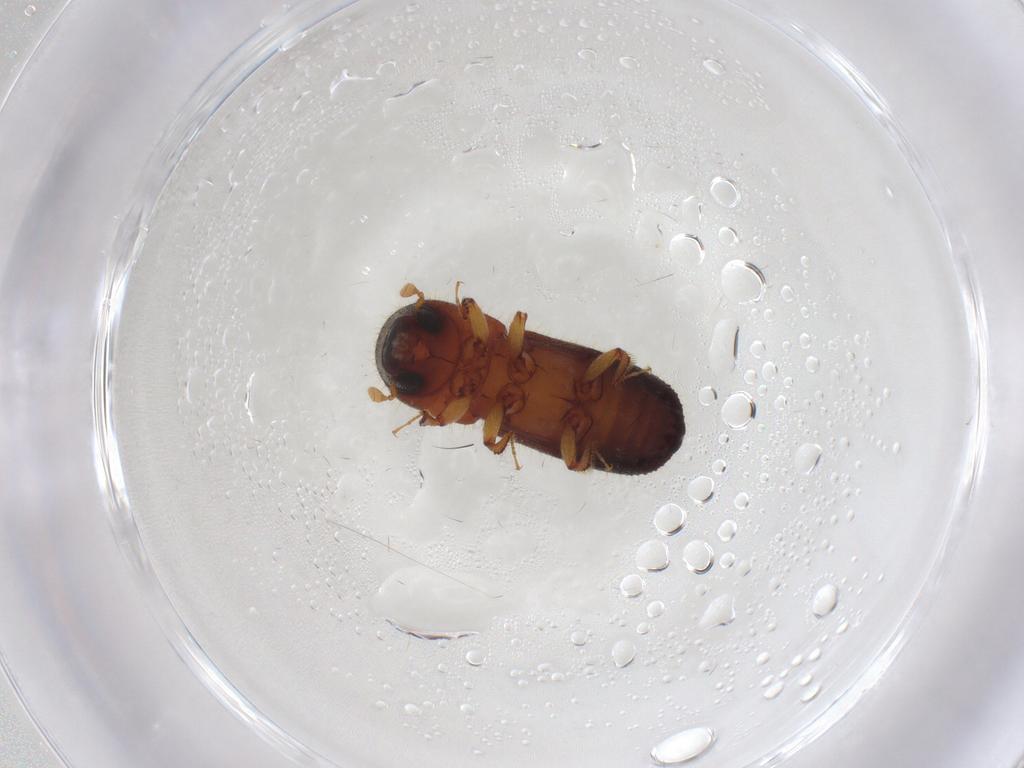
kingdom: Animalia
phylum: Arthropoda
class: Insecta
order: Coleoptera
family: Curculionidae
